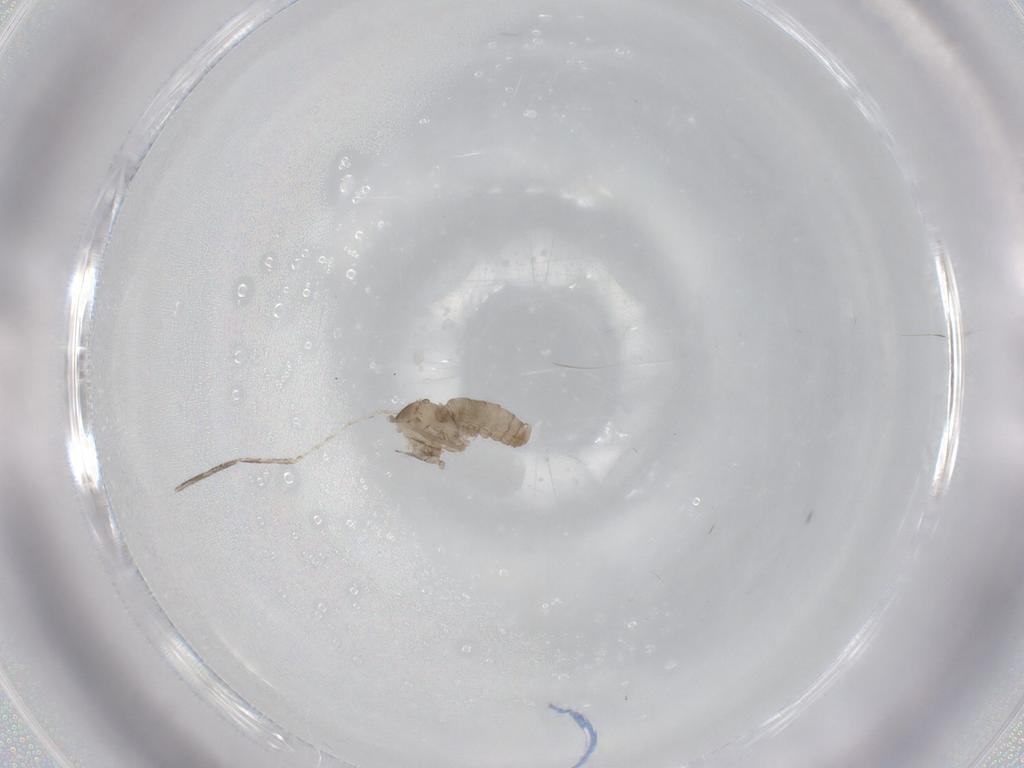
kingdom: Animalia
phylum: Arthropoda
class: Insecta
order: Diptera
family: Cecidomyiidae
